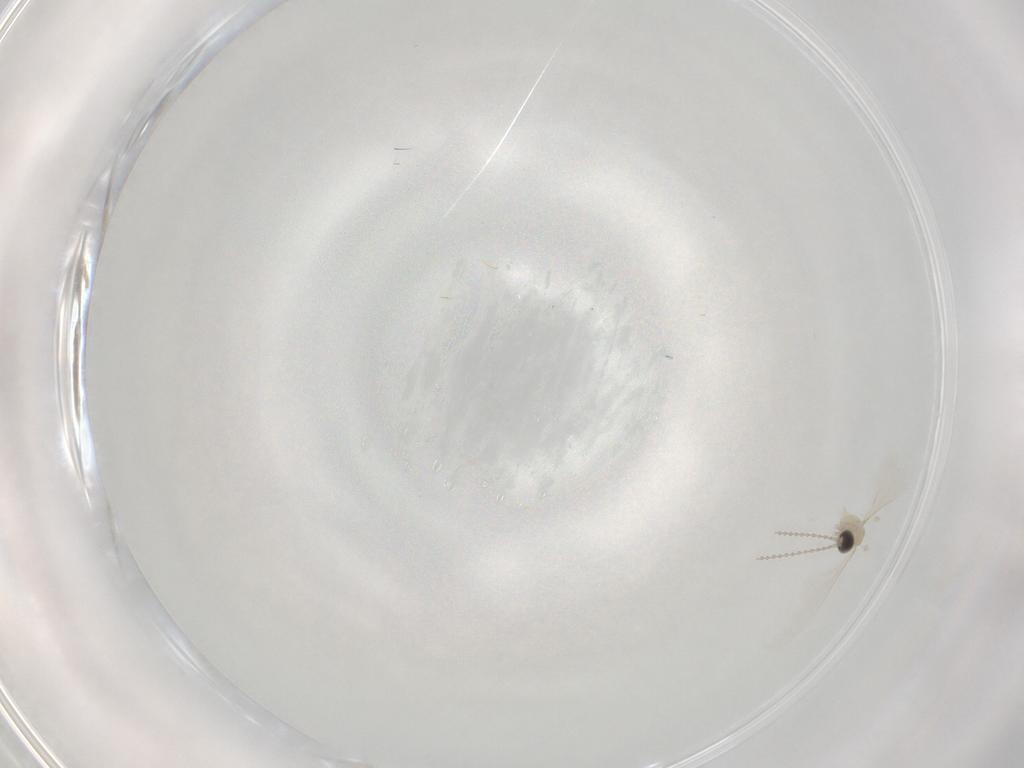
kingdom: Animalia
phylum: Arthropoda
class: Insecta
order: Diptera
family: Cecidomyiidae
